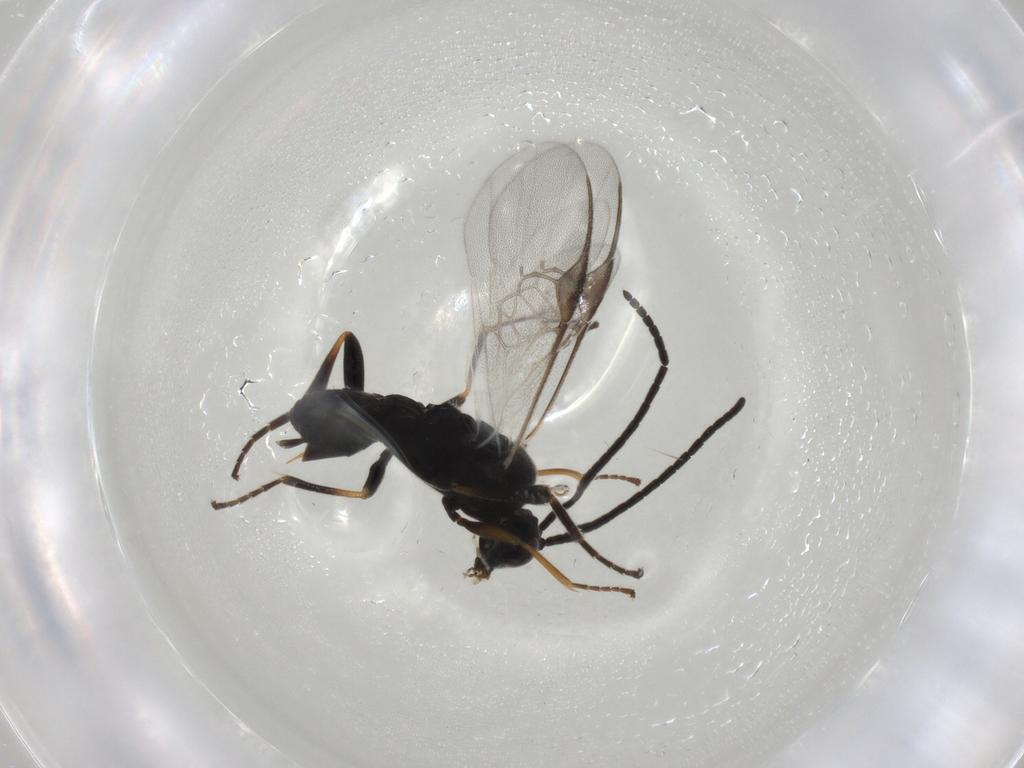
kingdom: Animalia
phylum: Arthropoda
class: Insecta
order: Hymenoptera
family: Braconidae
